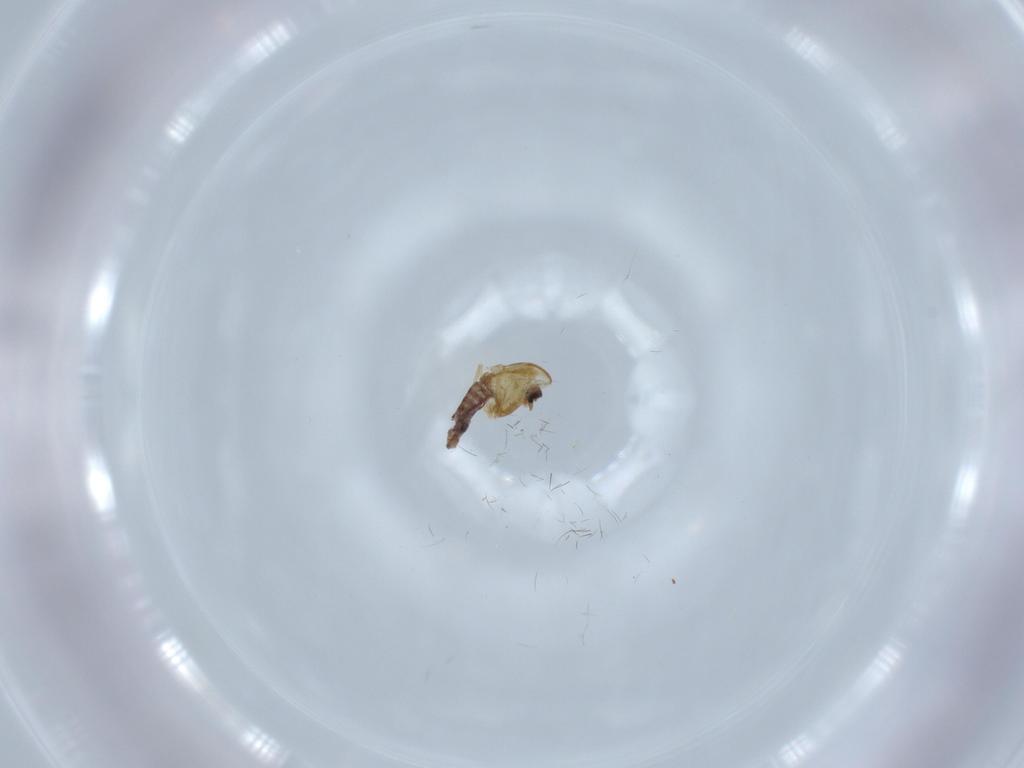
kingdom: Animalia
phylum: Arthropoda
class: Insecta
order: Diptera
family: Chironomidae
